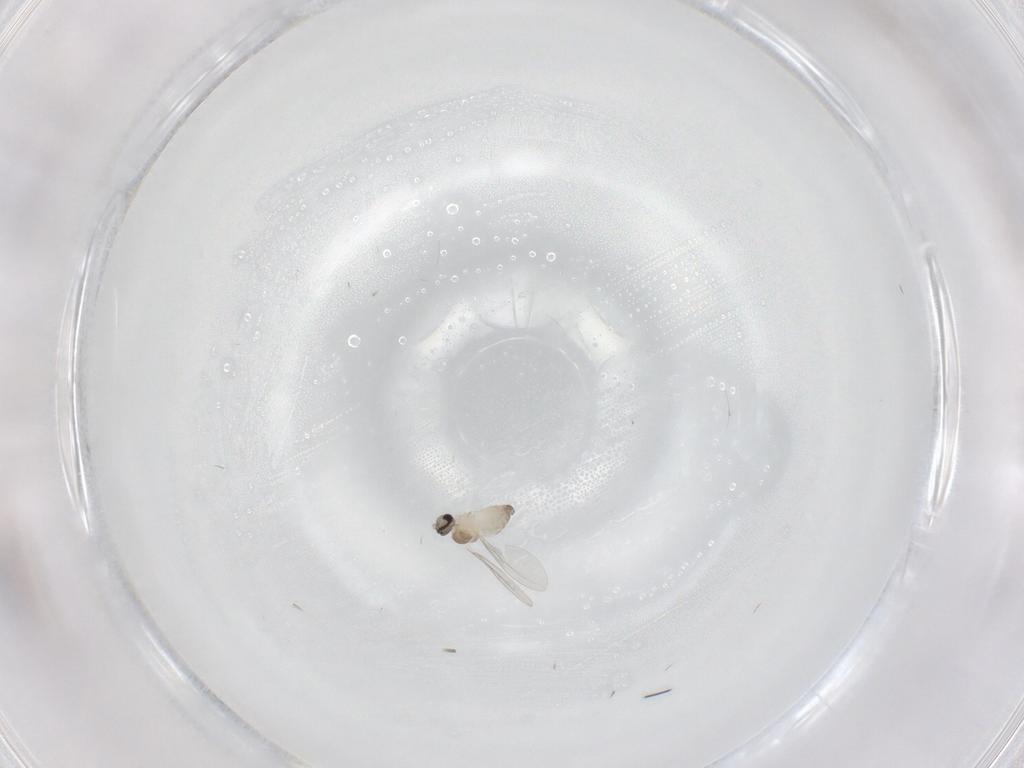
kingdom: Animalia
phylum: Arthropoda
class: Insecta
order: Diptera
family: Cecidomyiidae
